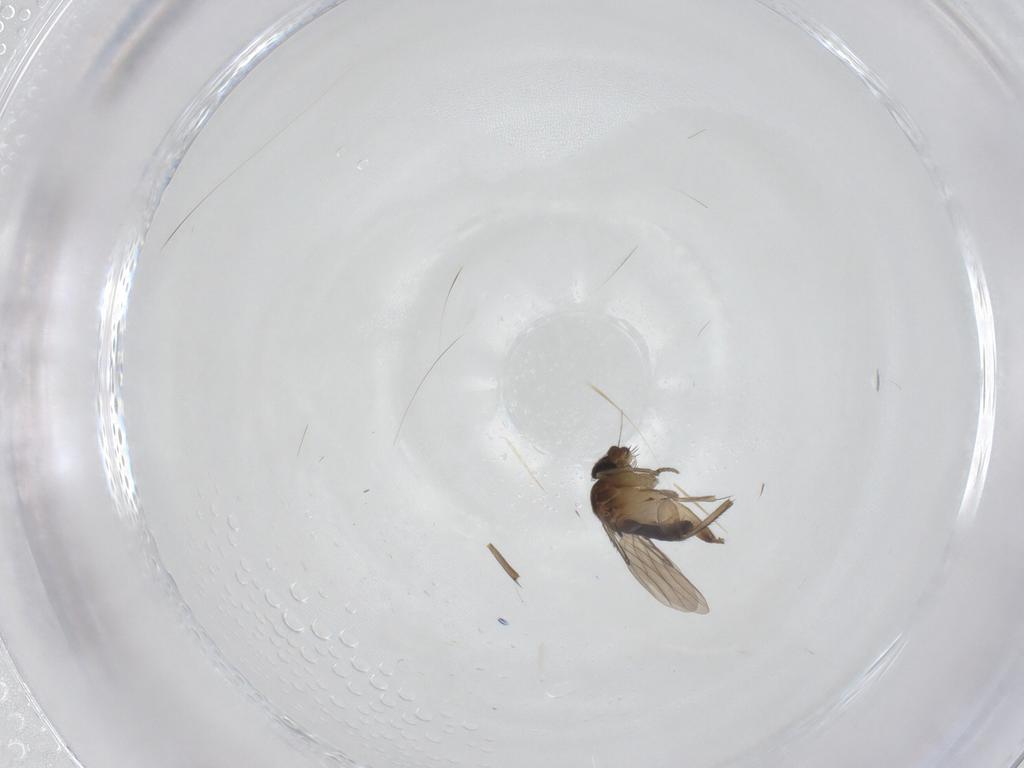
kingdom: Animalia
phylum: Arthropoda
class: Insecta
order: Diptera
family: Phoridae
